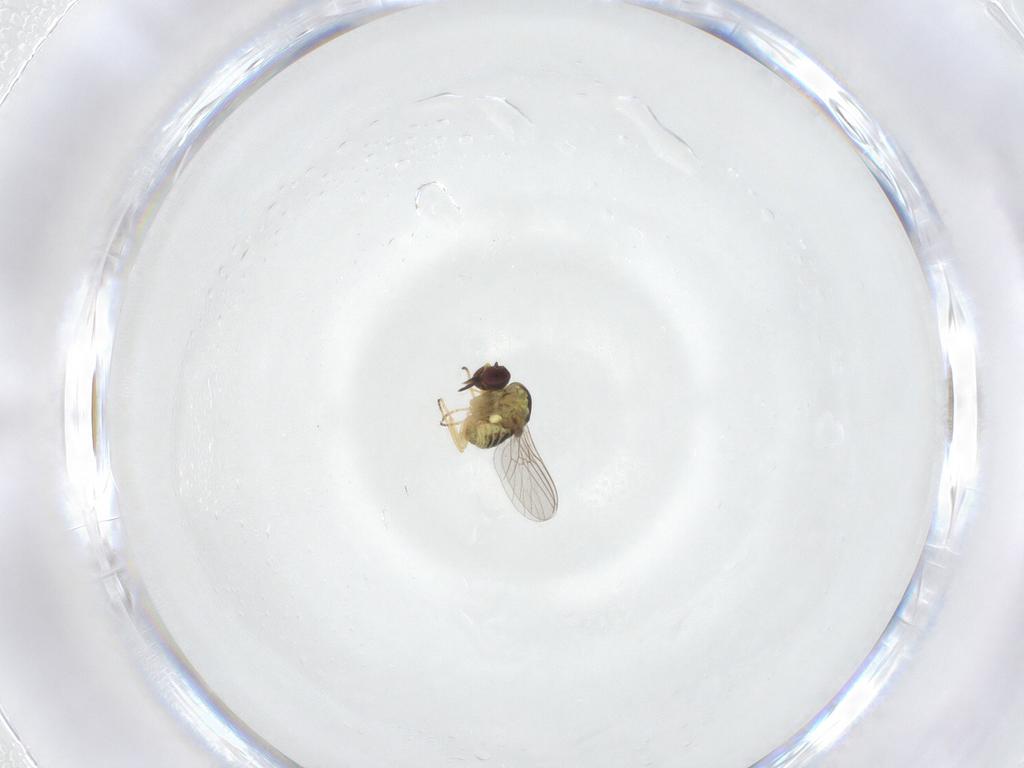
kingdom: Animalia
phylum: Arthropoda
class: Insecta
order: Diptera
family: Mythicomyiidae
